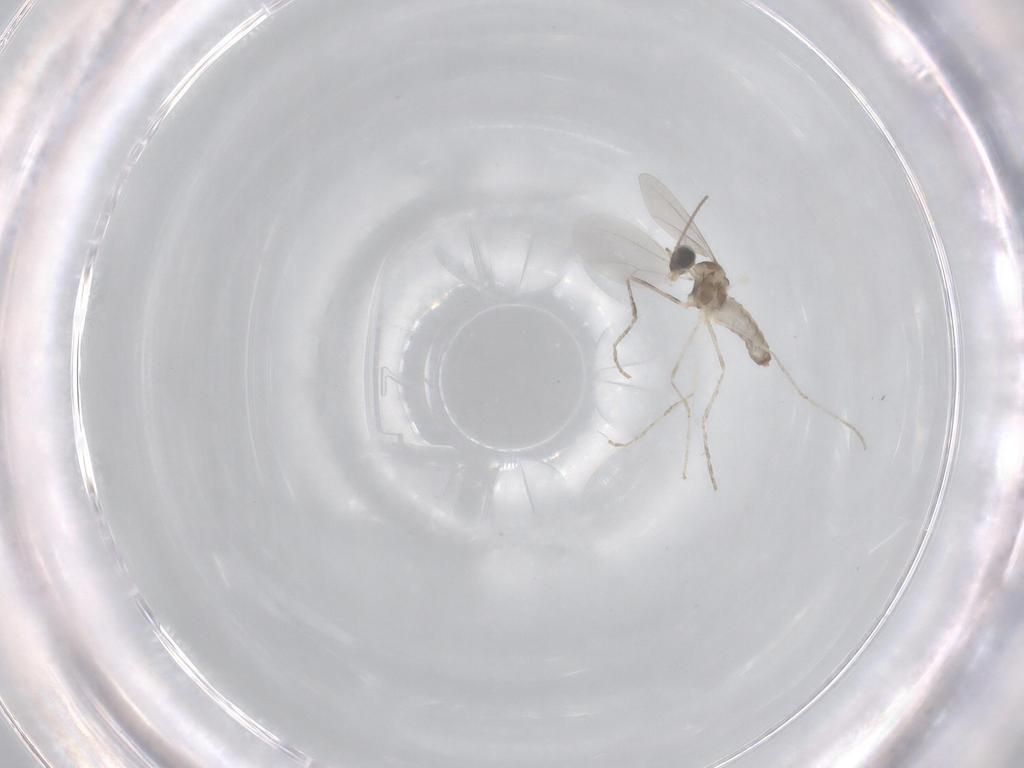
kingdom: Animalia
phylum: Arthropoda
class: Insecta
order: Diptera
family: Cecidomyiidae
